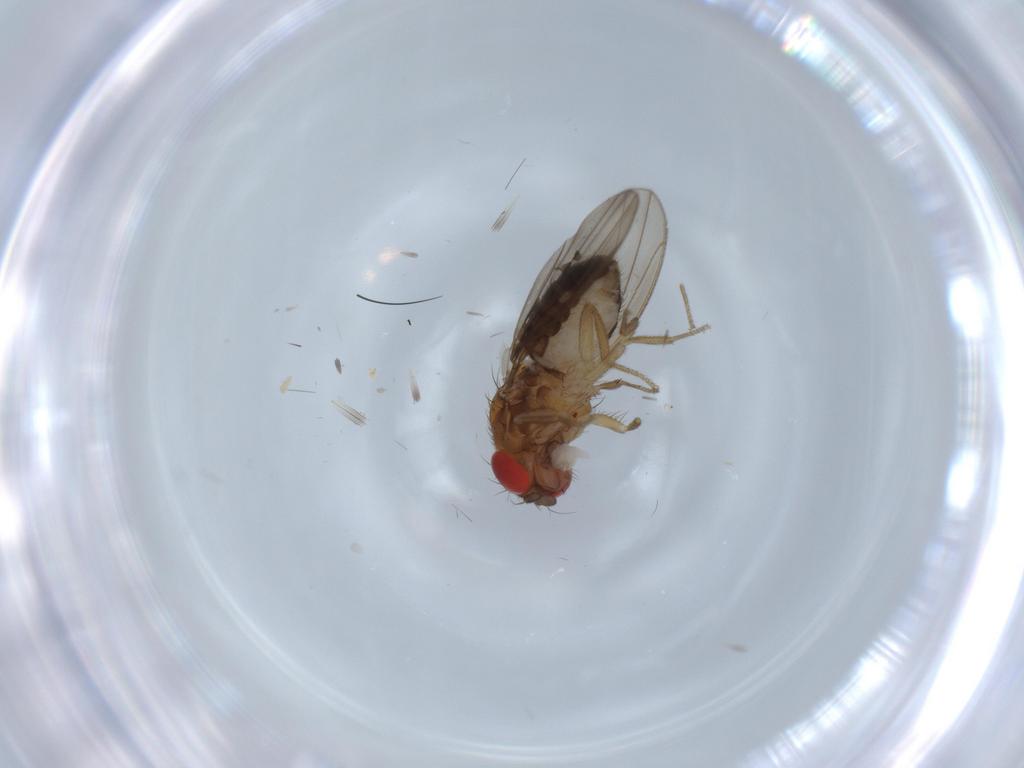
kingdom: Animalia
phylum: Arthropoda
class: Insecta
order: Diptera
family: Drosophilidae
